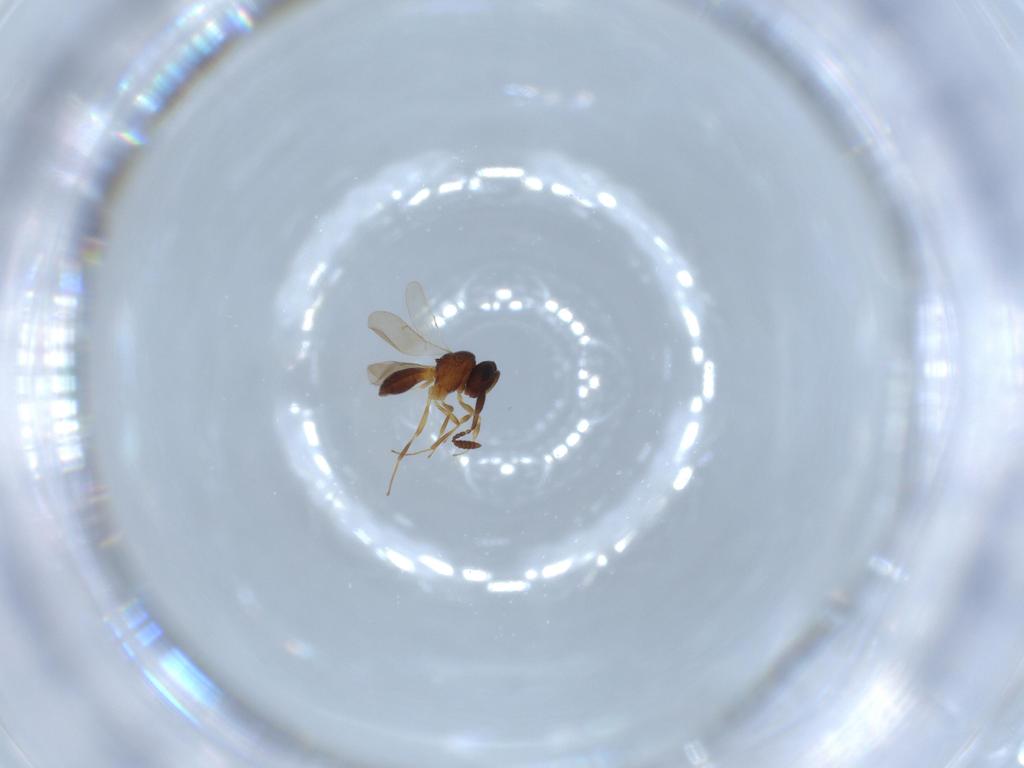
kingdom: Animalia
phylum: Arthropoda
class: Insecta
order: Hymenoptera
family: Scelionidae
